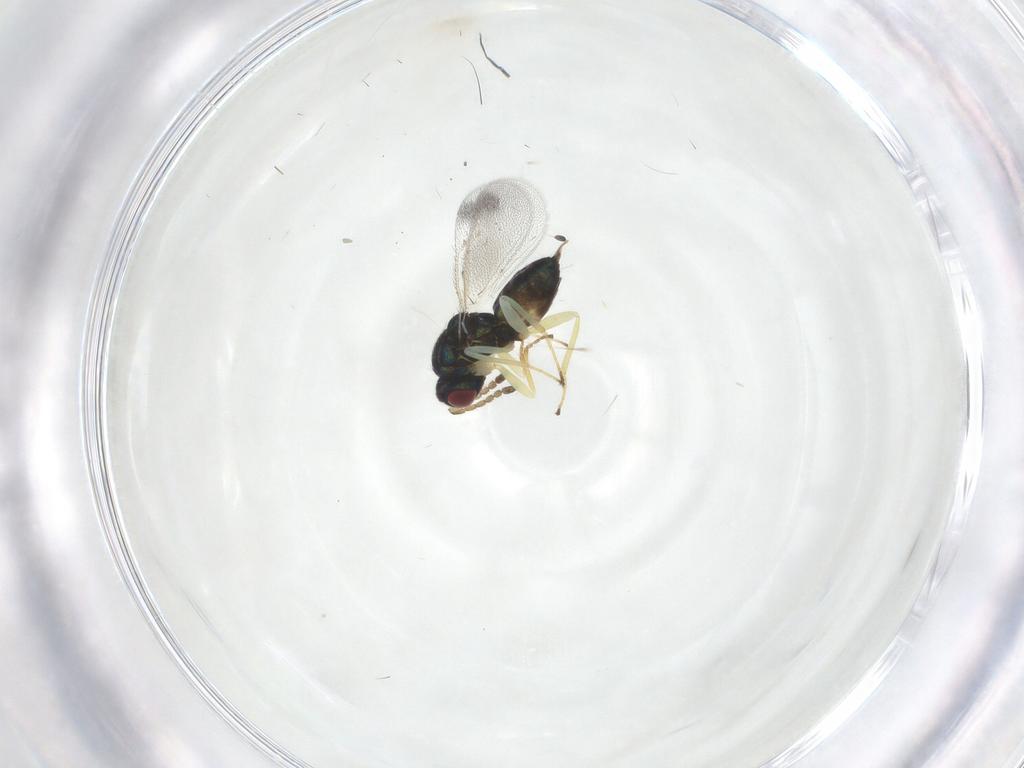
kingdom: Animalia
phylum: Arthropoda
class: Insecta
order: Hymenoptera
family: Eulophidae
